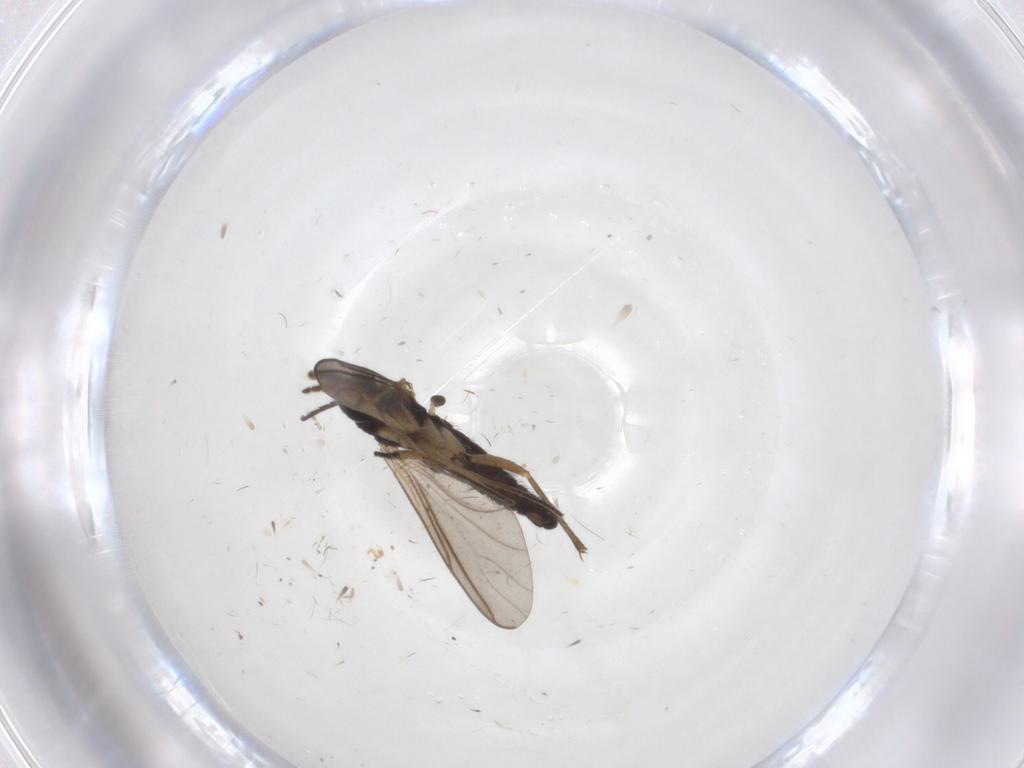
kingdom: Animalia
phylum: Arthropoda
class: Insecta
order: Diptera
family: Sciaridae
